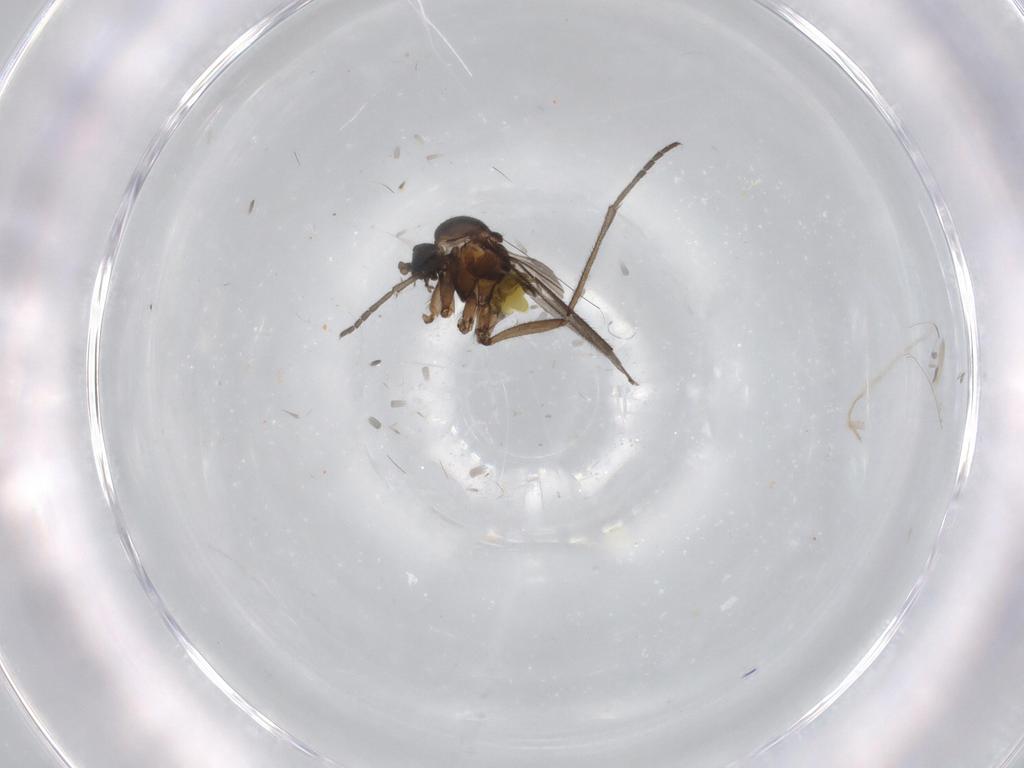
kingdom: Animalia
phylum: Arthropoda
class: Insecta
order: Diptera
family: Sciaridae
